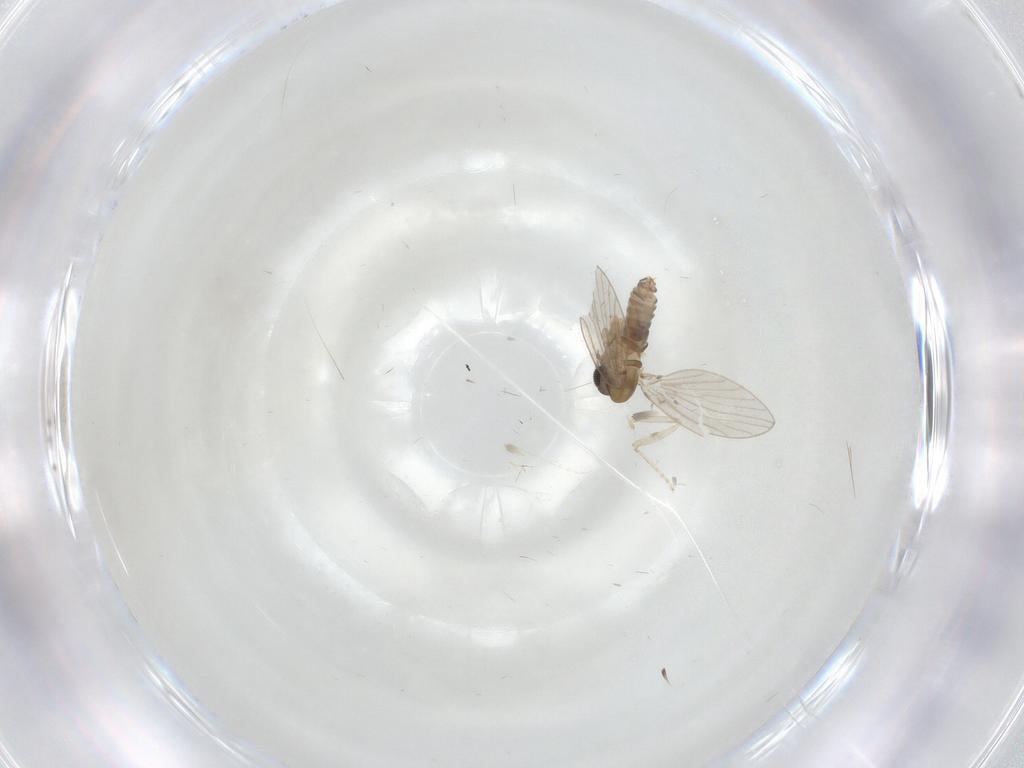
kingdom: Animalia
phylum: Arthropoda
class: Insecta
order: Diptera
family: Psychodidae
